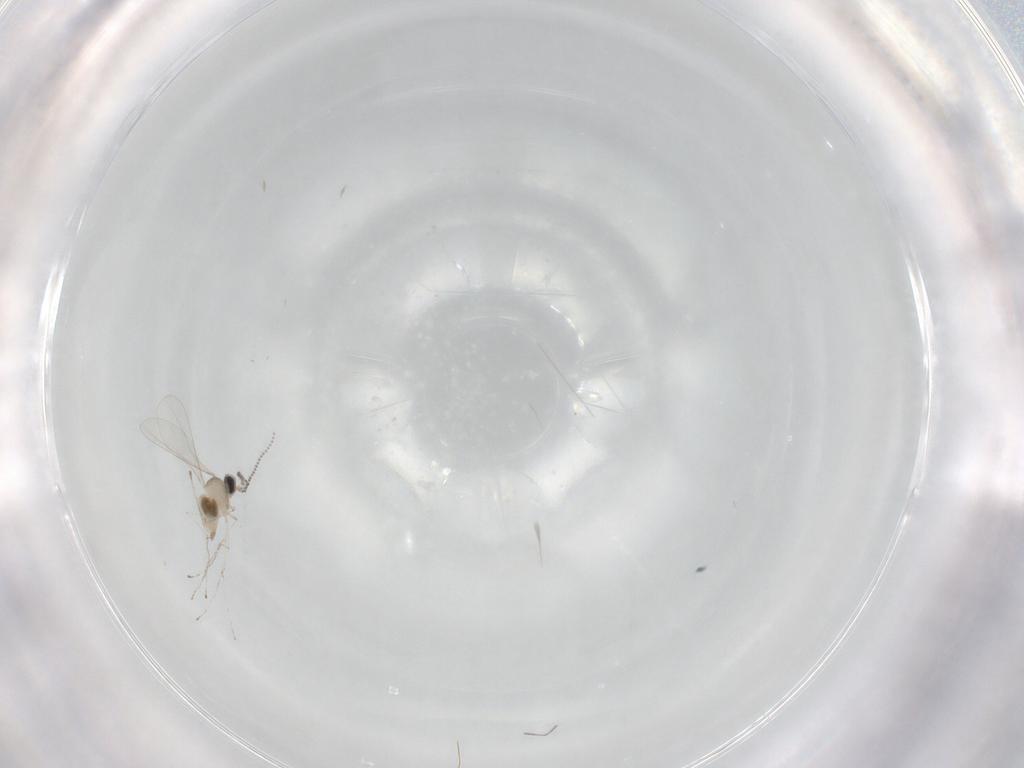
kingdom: Animalia
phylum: Arthropoda
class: Insecta
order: Diptera
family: Cecidomyiidae
